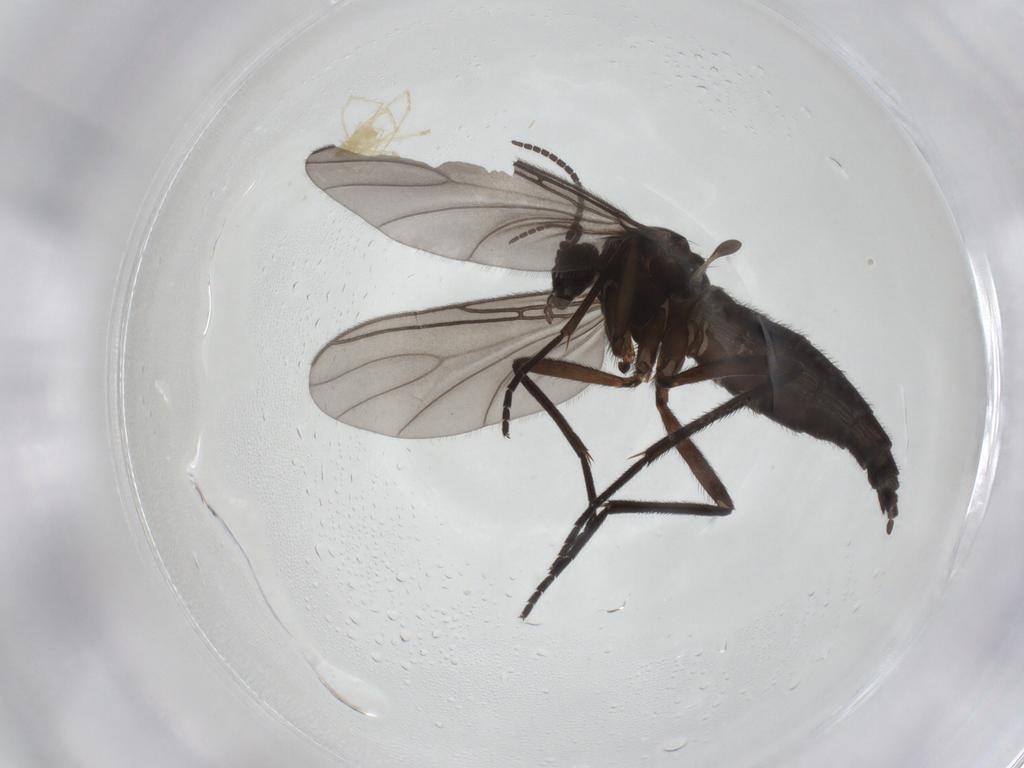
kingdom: Animalia
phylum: Arthropoda
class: Insecta
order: Diptera
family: Sciaridae
